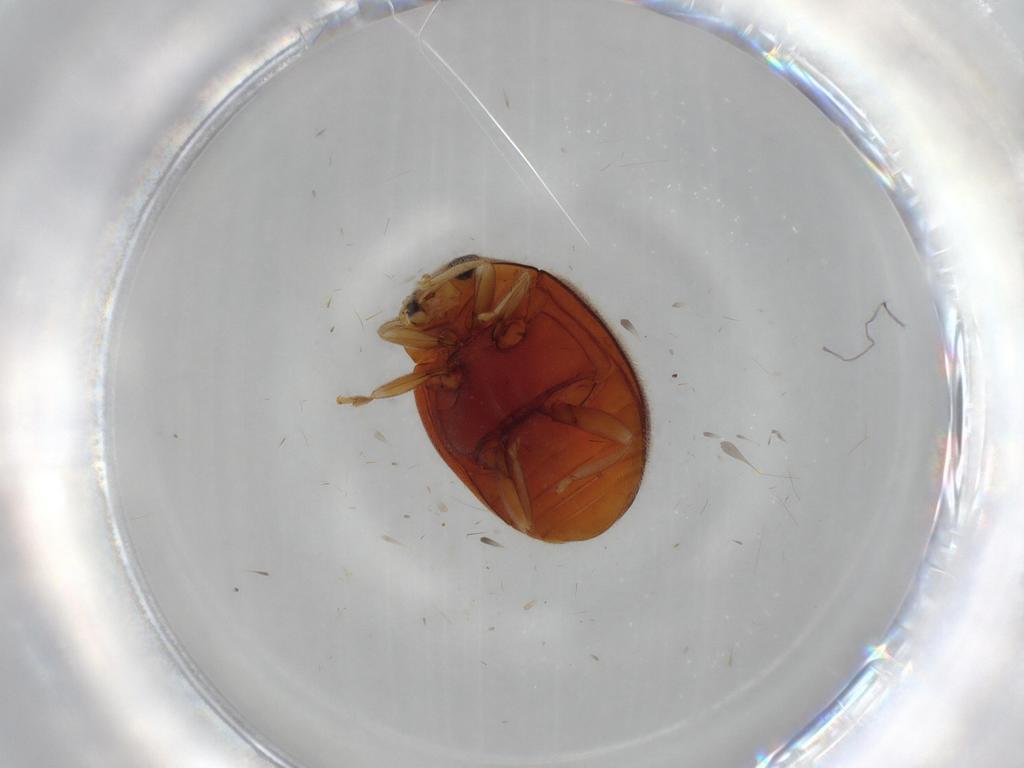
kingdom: Animalia
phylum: Arthropoda
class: Insecta
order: Coleoptera
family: Coccinellidae
